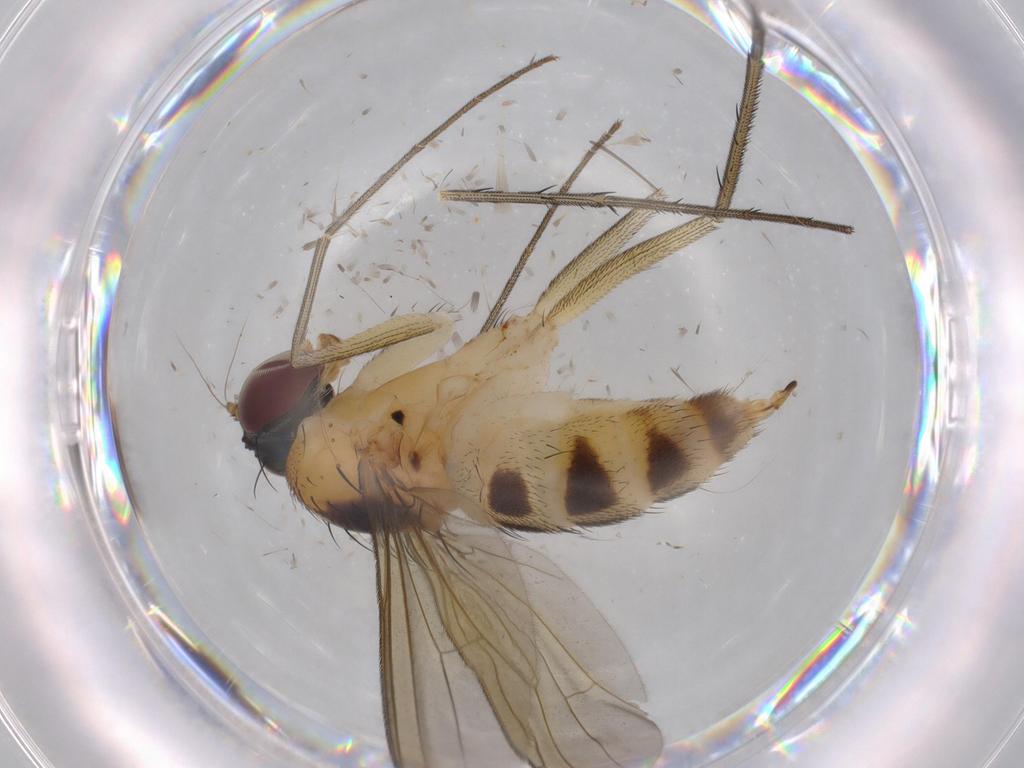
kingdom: Animalia
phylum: Arthropoda
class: Insecta
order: Diptera
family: Dolichopodidae
